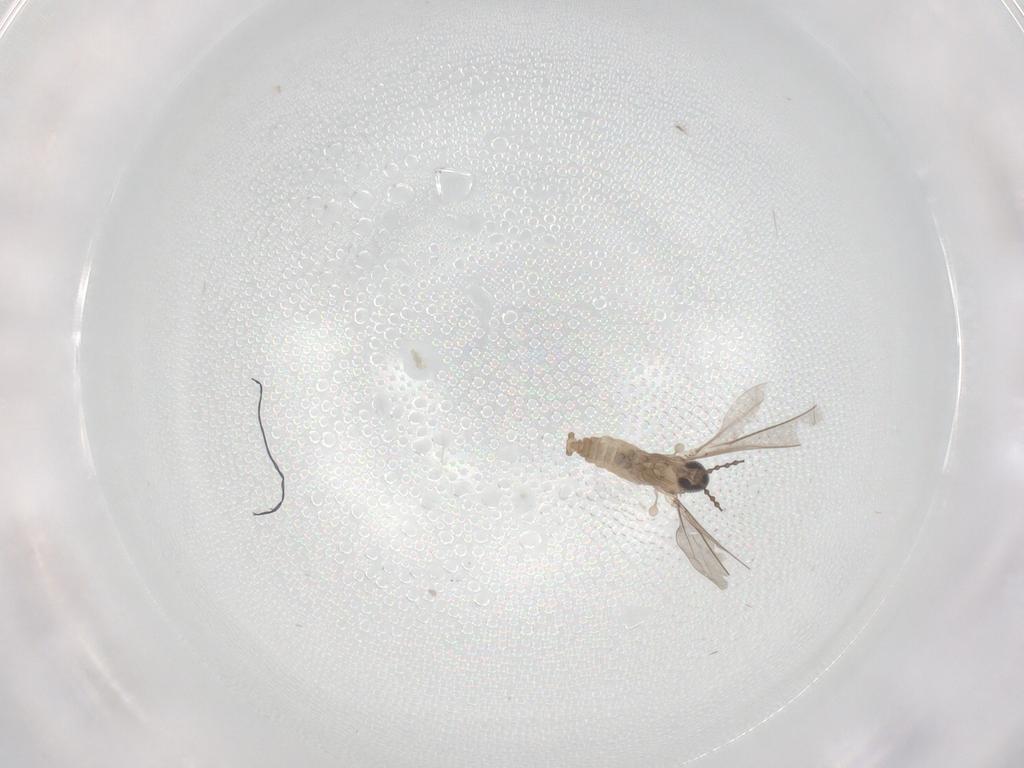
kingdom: Animalia
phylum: Arthropoda
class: Insecta
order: Diptera
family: Cecidomyiidae
